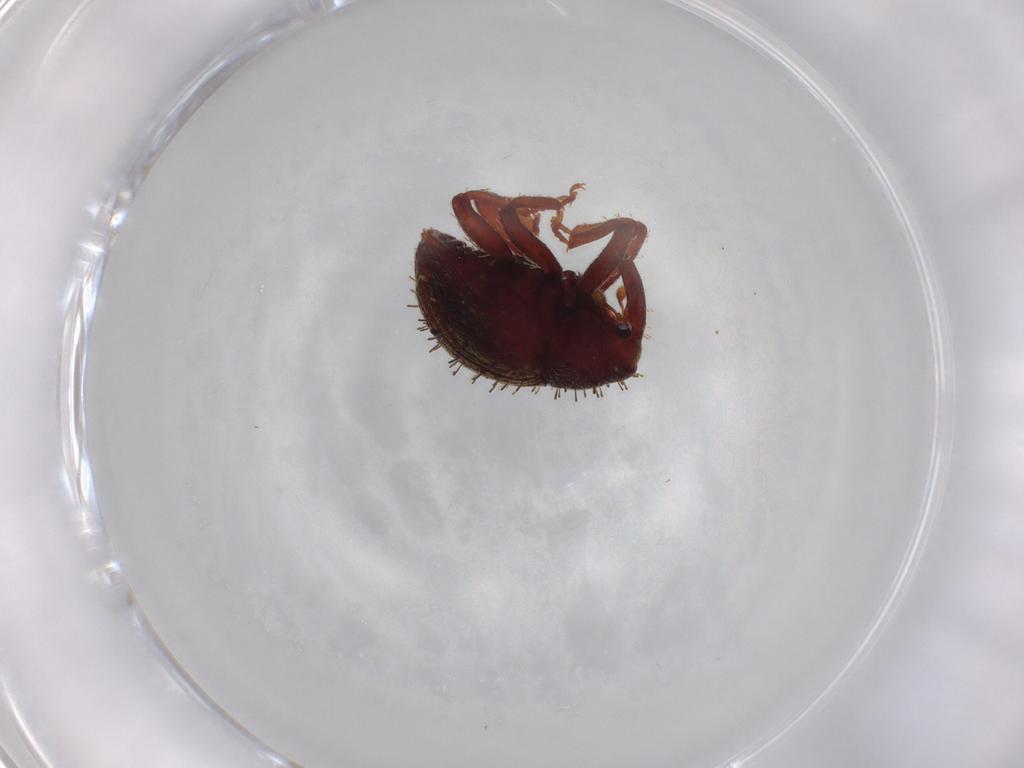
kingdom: Animalia
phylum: Arthropoda
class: Insecta
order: Coleoptera
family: Curculionidae
